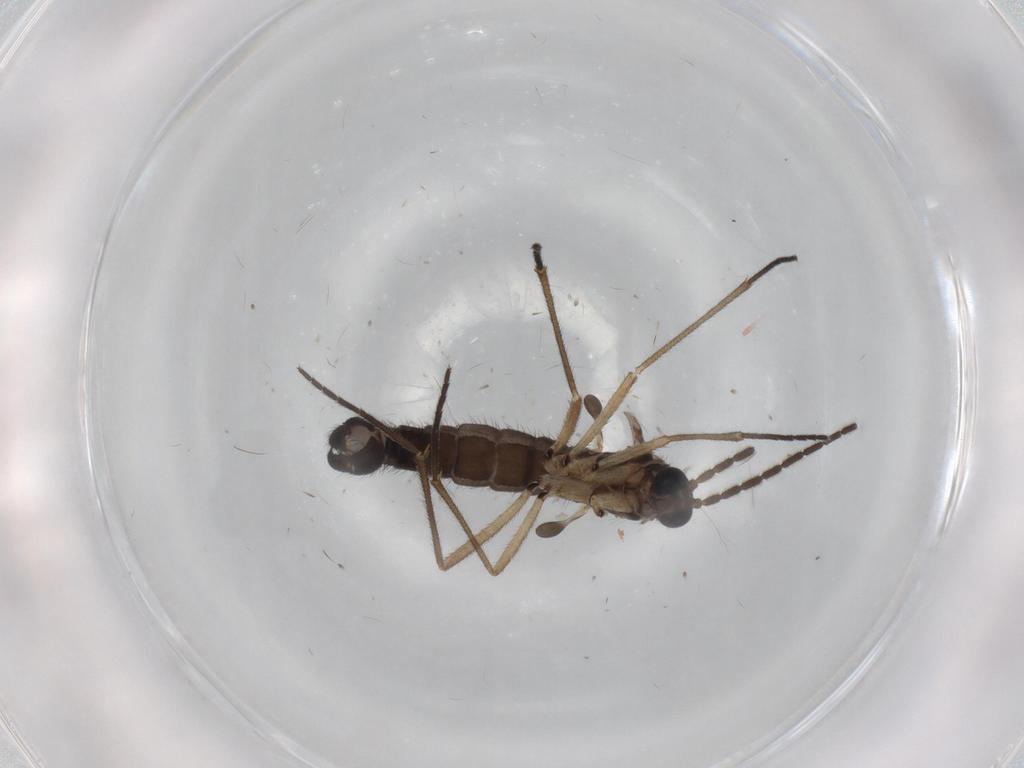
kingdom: Animalia
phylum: Arthropoda
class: Insecta
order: Diptera
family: Sciaridae
